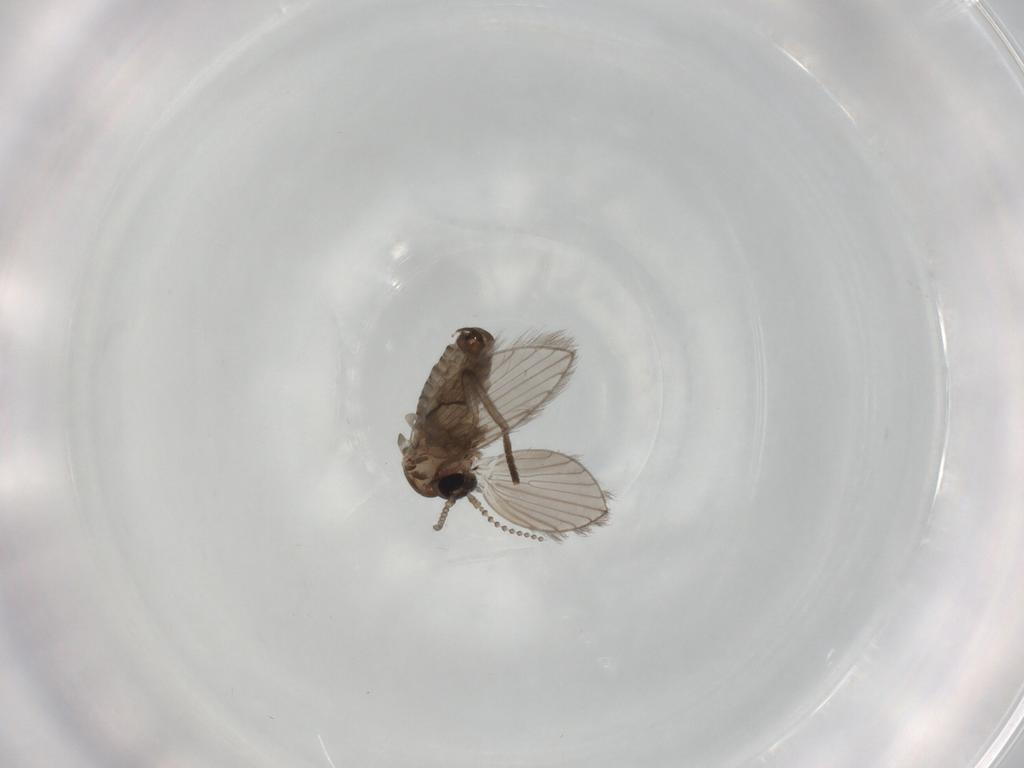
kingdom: Animalia
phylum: Arthropoda
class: Insecta
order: Diptera
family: Psychodidae
